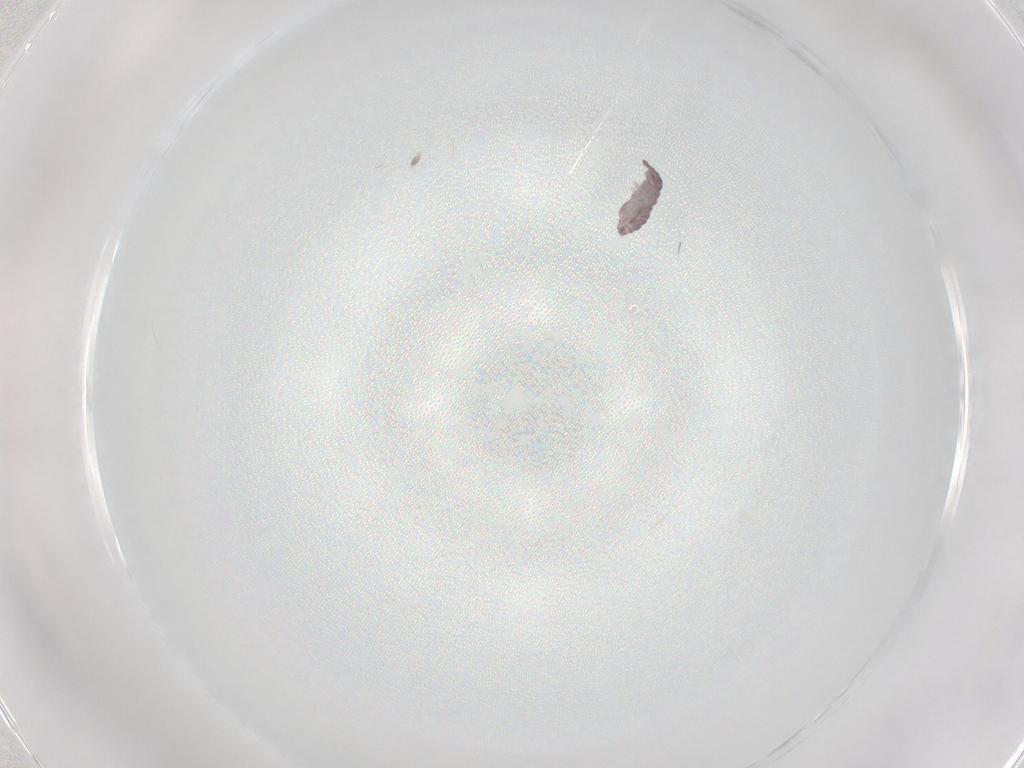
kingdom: Animalia
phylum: Arthropoda
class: Collembola
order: Poduromorpha
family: Hypogastruridae
